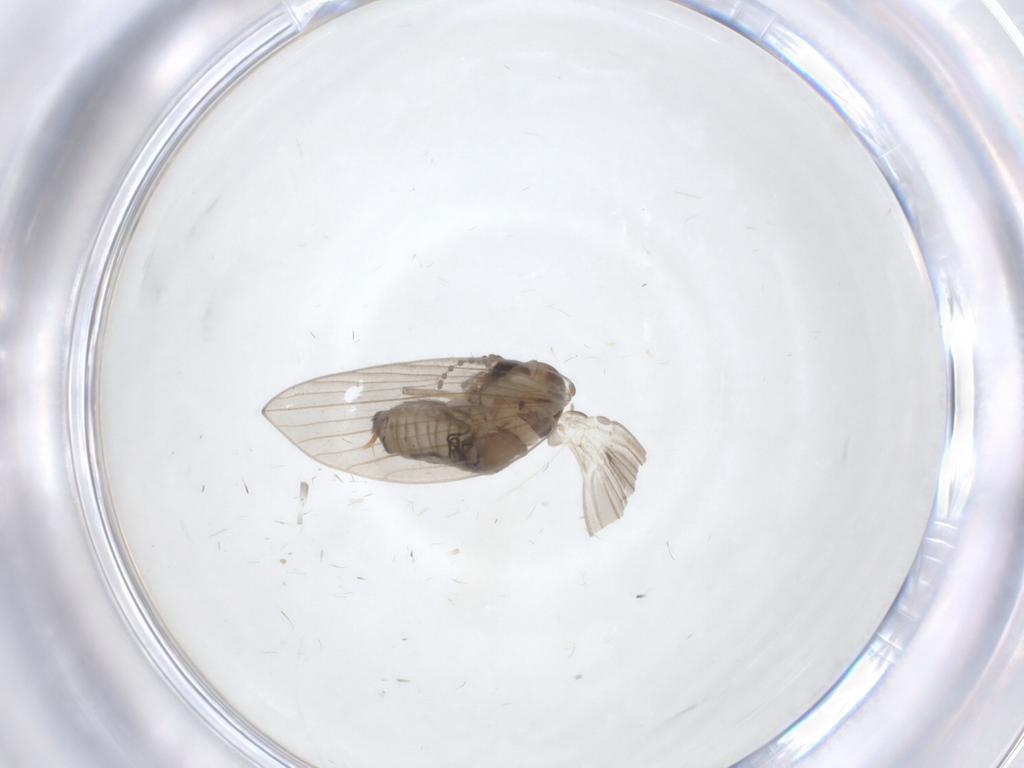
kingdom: Animalia
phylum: Arthropoda
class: Insecta
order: Diptera
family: Psychodidae
